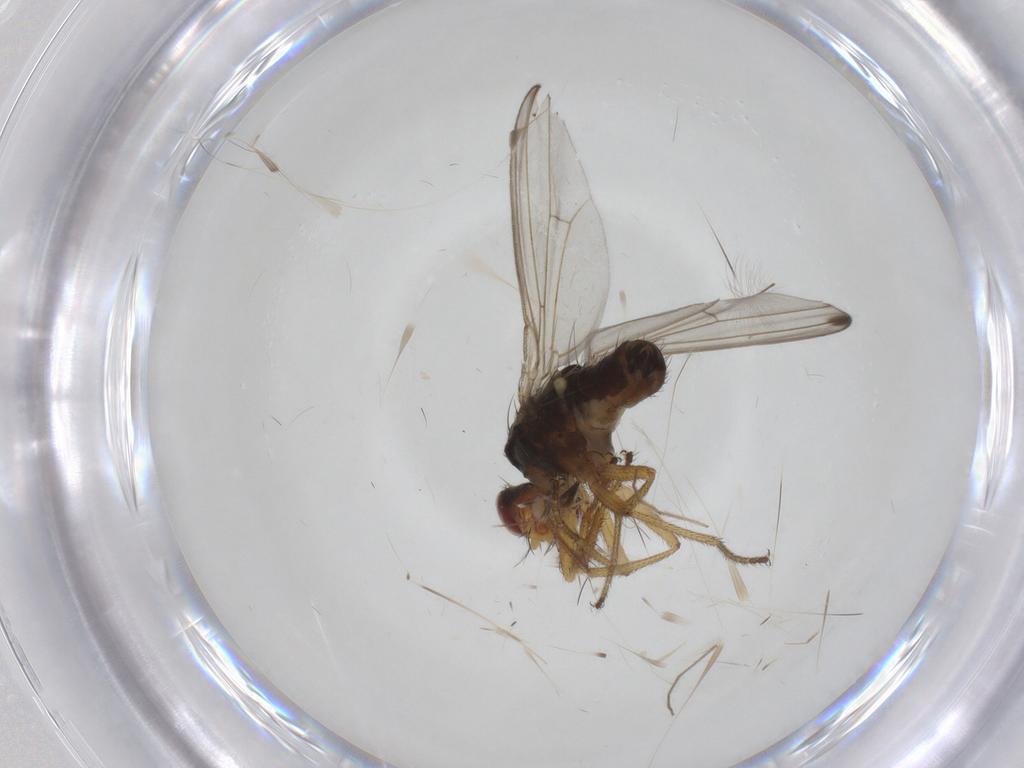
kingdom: Animalia
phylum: Arthropoda
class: Insecta
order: Diptera
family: Drosophilidae
